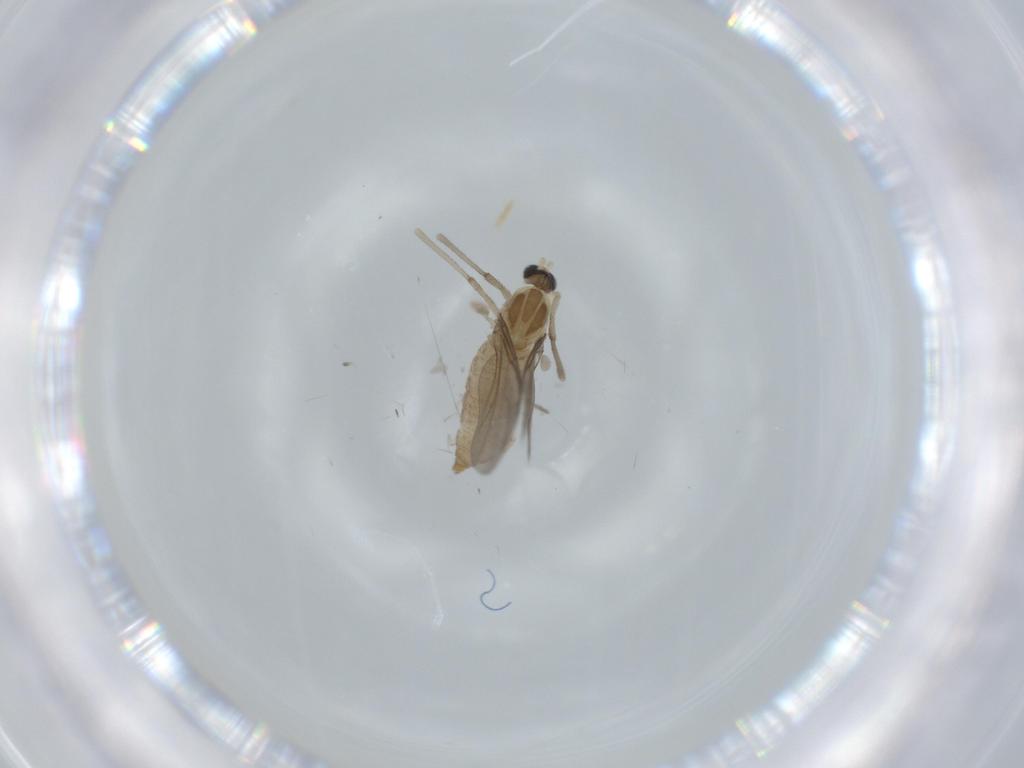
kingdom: Animalia
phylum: Arthropoda
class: Insecta
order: Diptera
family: Cecidomyiidae
